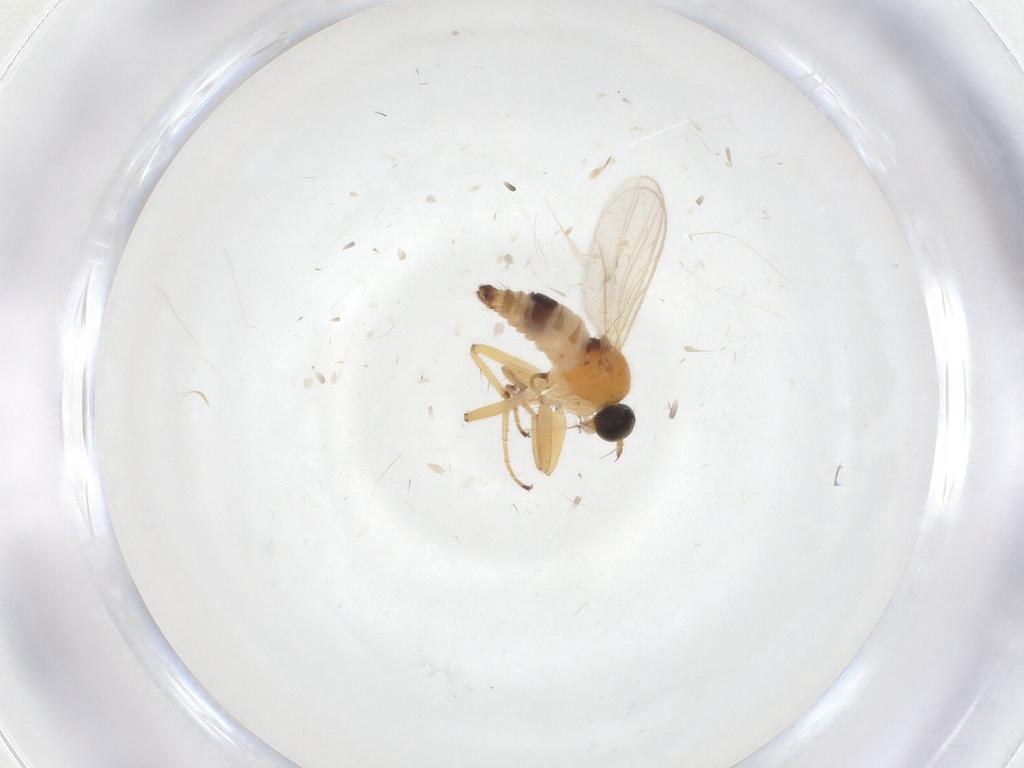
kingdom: Animalia
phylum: Arthropoda
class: Insecta
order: Diptera
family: Hybotidae
